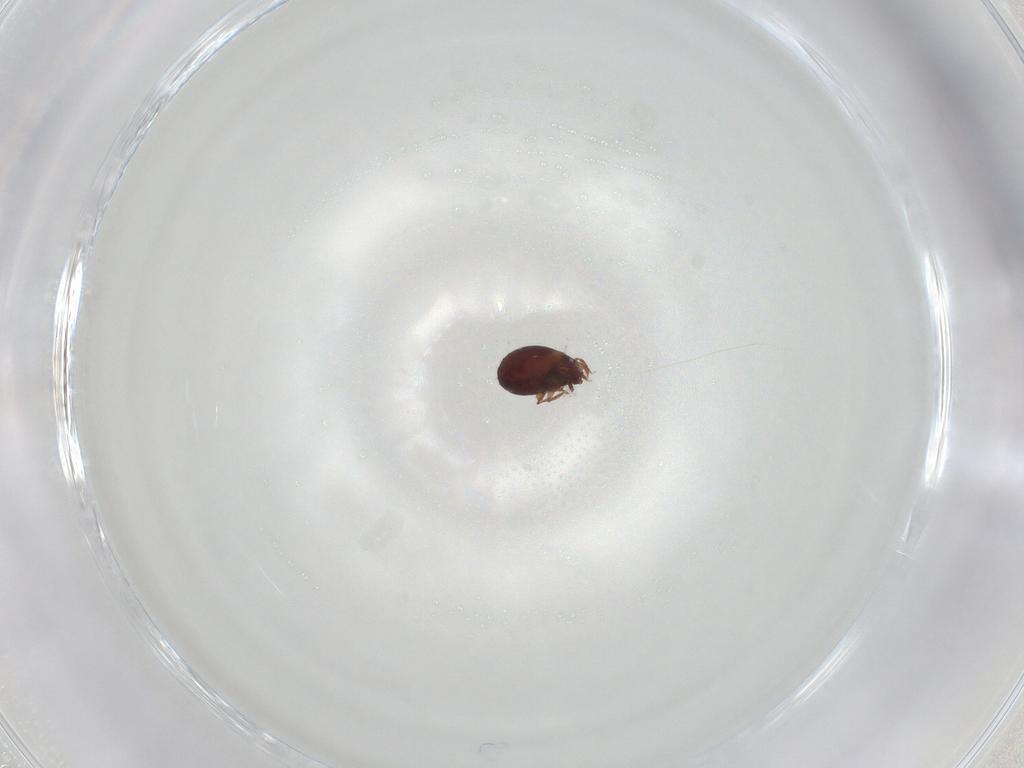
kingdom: Animalia
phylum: Arthropoda
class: Arachnida
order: Sarcoptiformes
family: Humerobatidae
